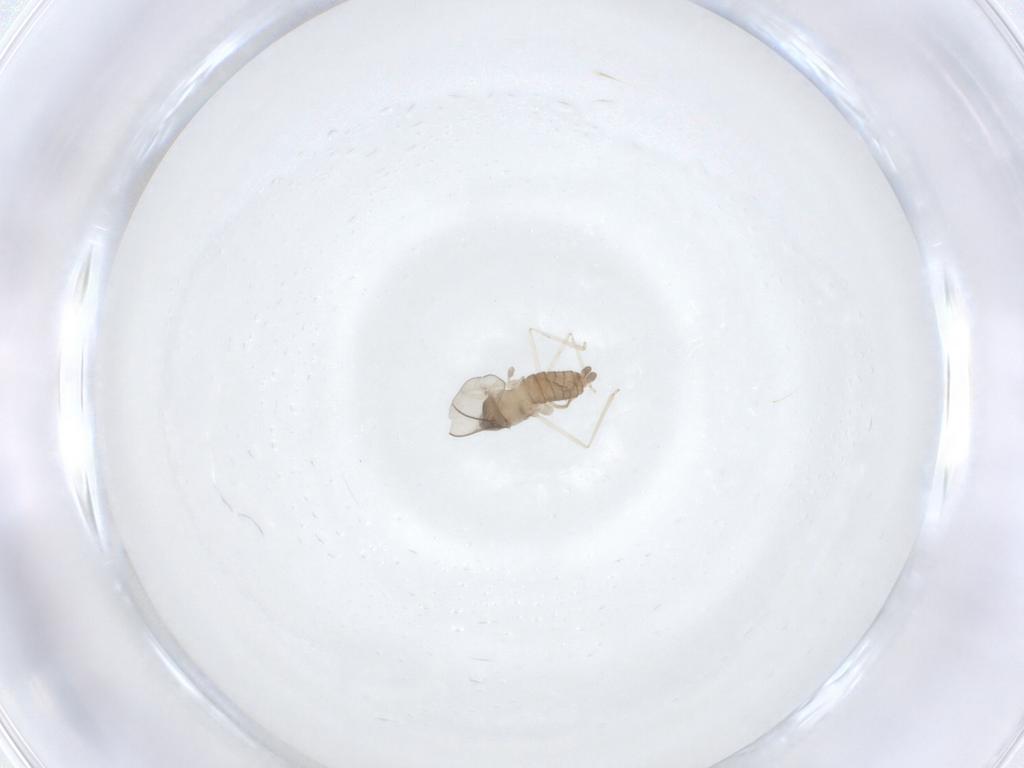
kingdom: Animalia
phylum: Arthropoda
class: Insecta
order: Diptera
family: Cecidomyiidae
